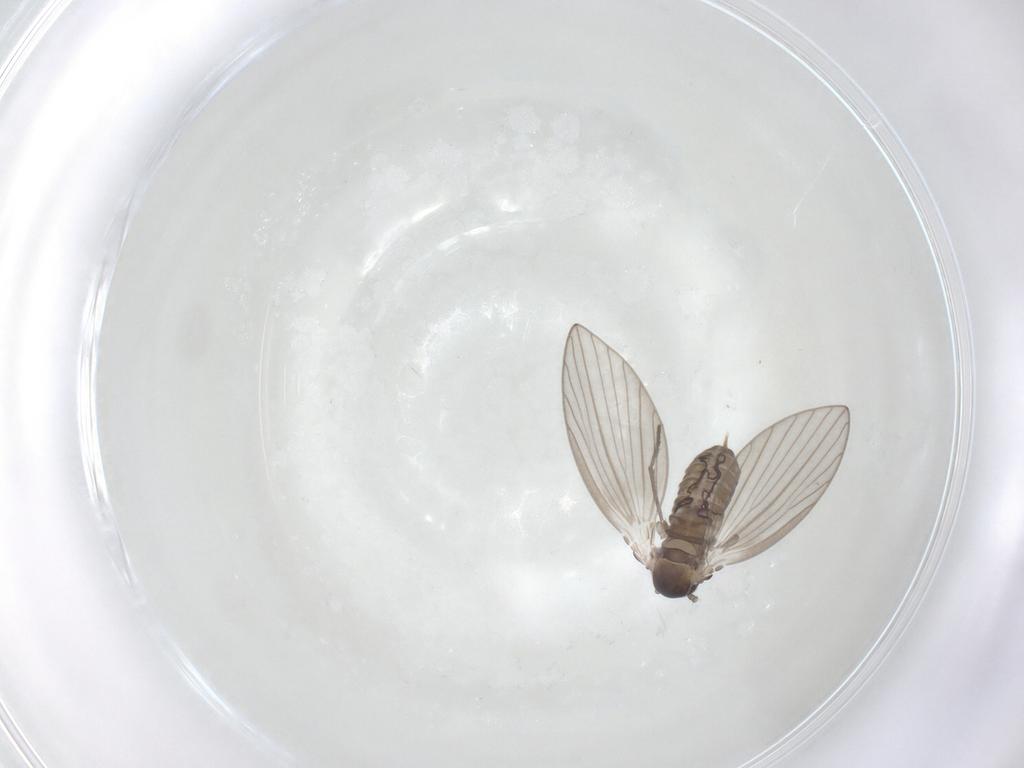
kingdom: Animalia
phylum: Arthropoda
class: Insecta
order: Diptera
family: Psychodidae
